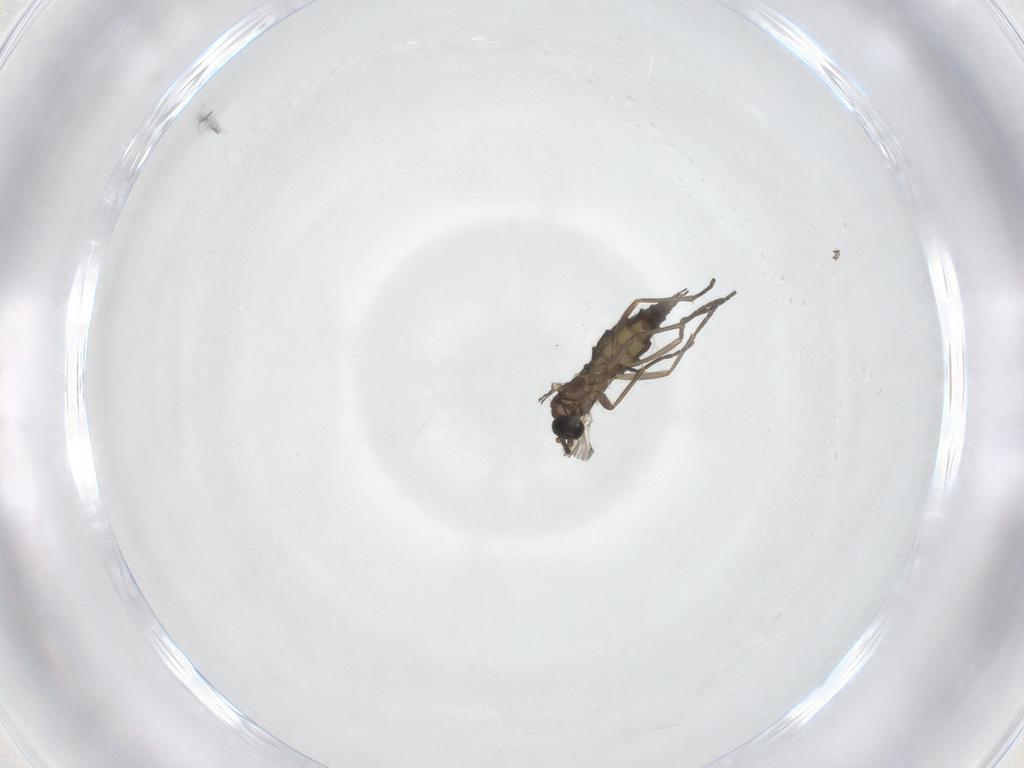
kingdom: Animalia
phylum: Arthropoda
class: Insecta
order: Diptera
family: Sciaridae
